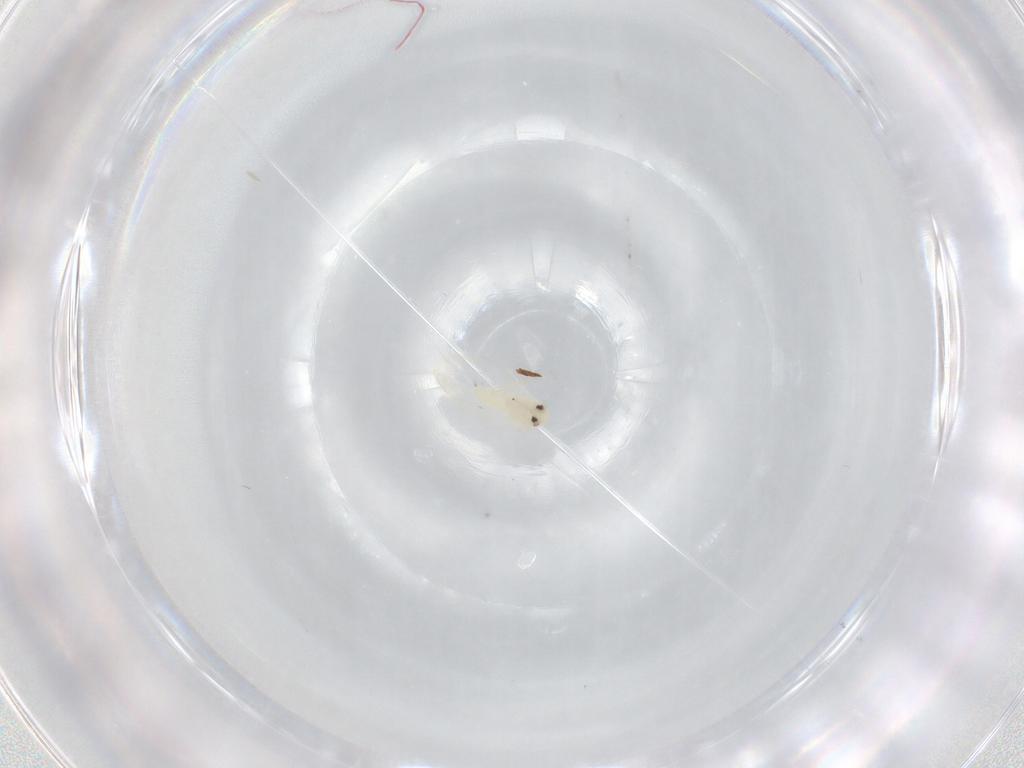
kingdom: Animalia
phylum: Arthropoda
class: Insecta
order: Hemiptera
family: Aleyrodidae
